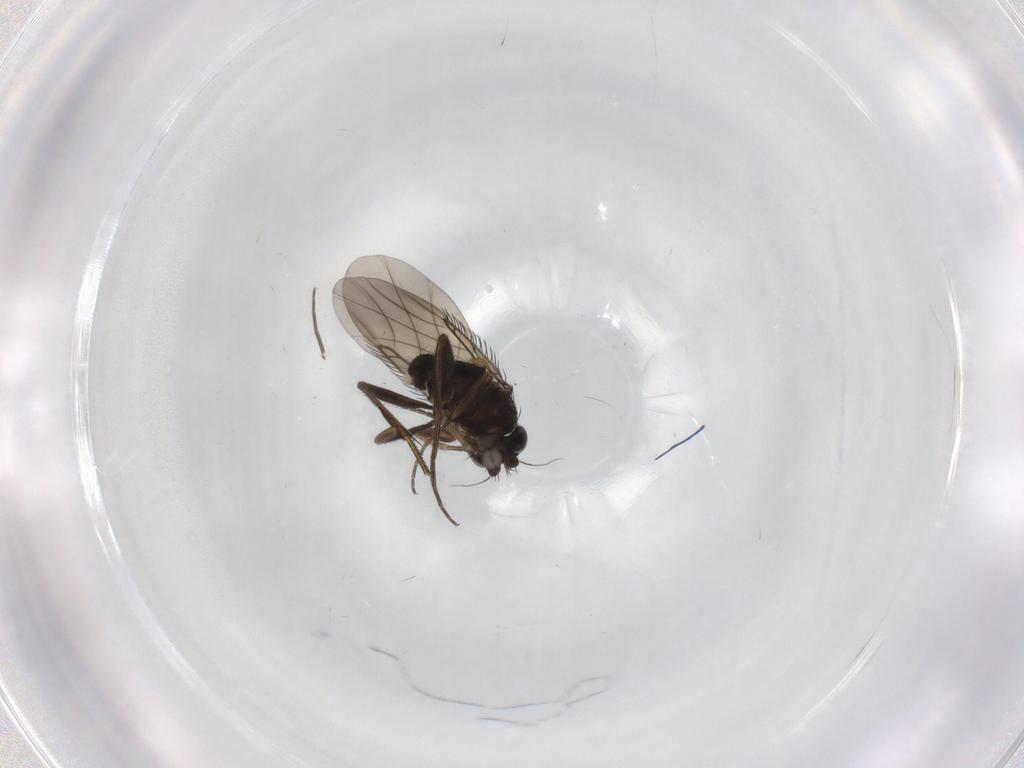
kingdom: Animalia
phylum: Arthropoda
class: Insecta
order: Diptera
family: Phoridae
